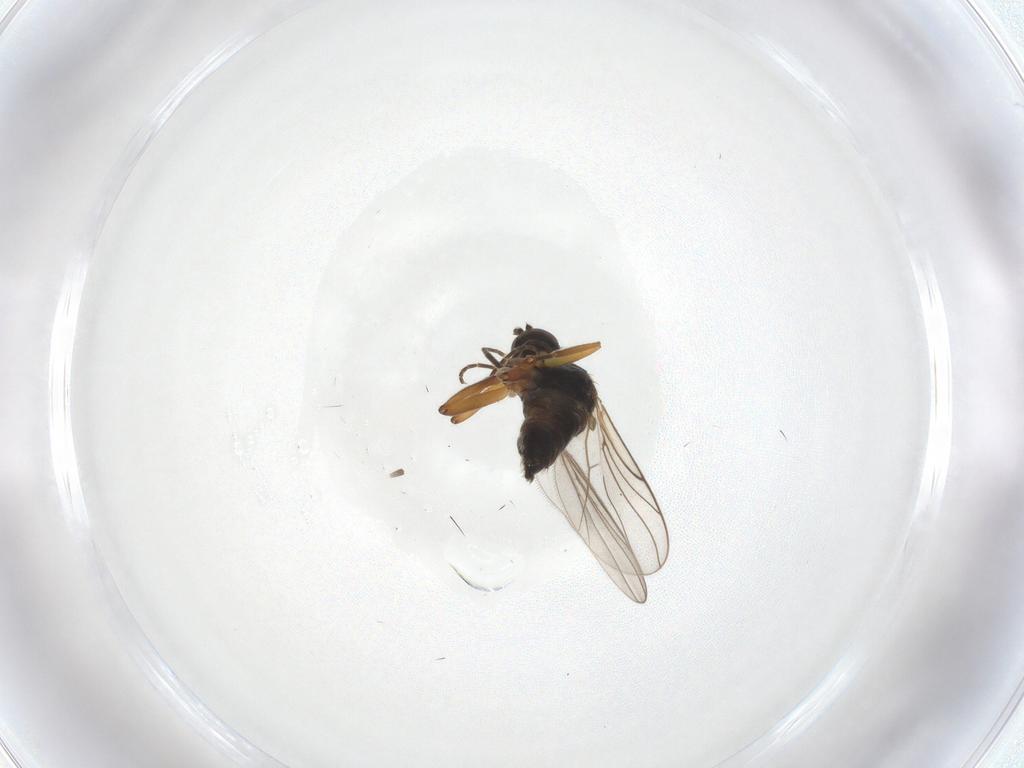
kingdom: Animalia
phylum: Arthropoda
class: Insecta
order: Diptera
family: Hybotidae
